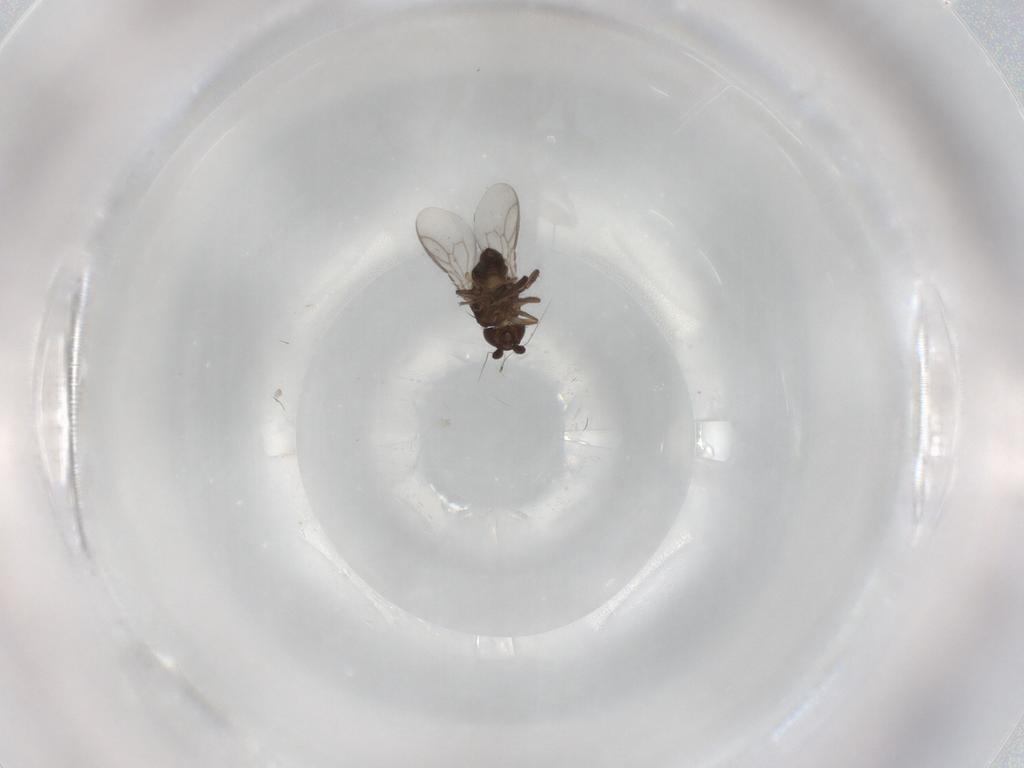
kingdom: Animalia
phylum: Arthropoda
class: Insecta
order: Diptera
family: Sphaeroceridae
